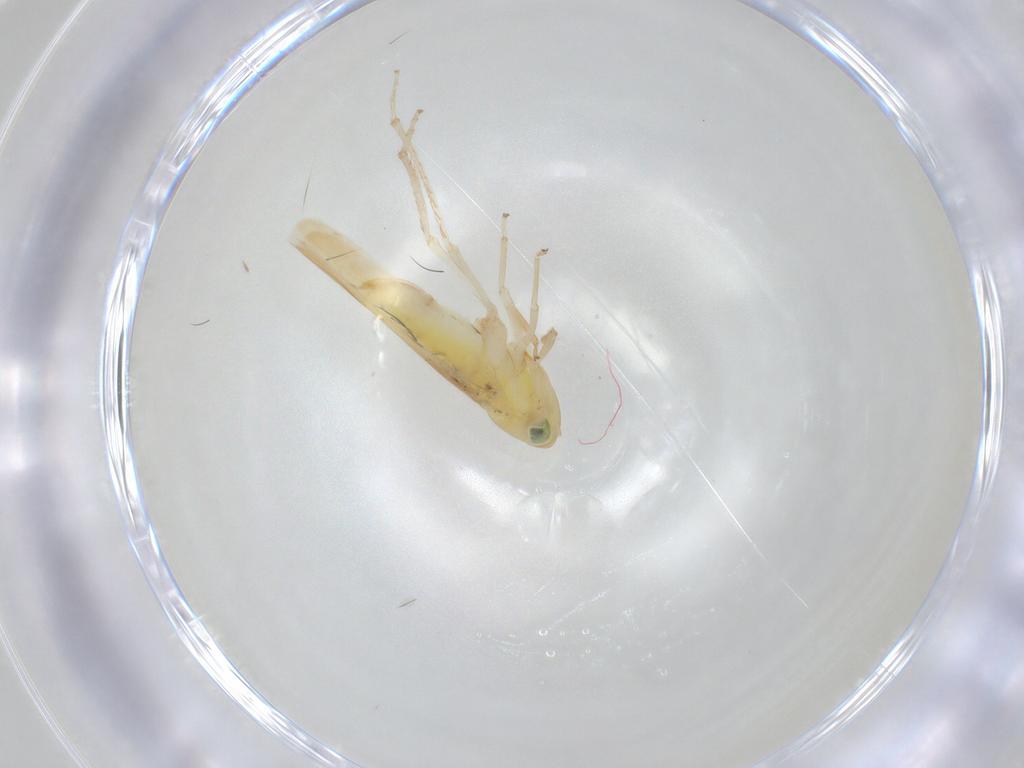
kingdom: Animalia
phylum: Arthropoda
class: Insecta
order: Hemiptera
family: Cicadellidae
